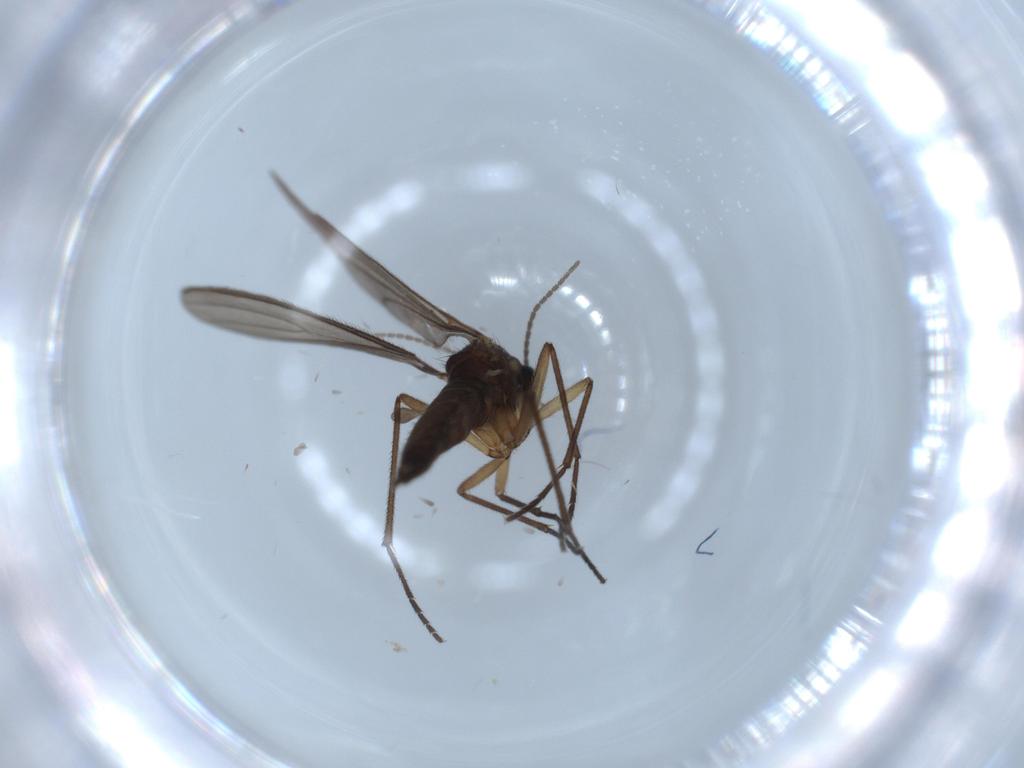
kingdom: Animalia
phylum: Arthropoda
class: Insecta
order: Diptera
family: Sciaridae
